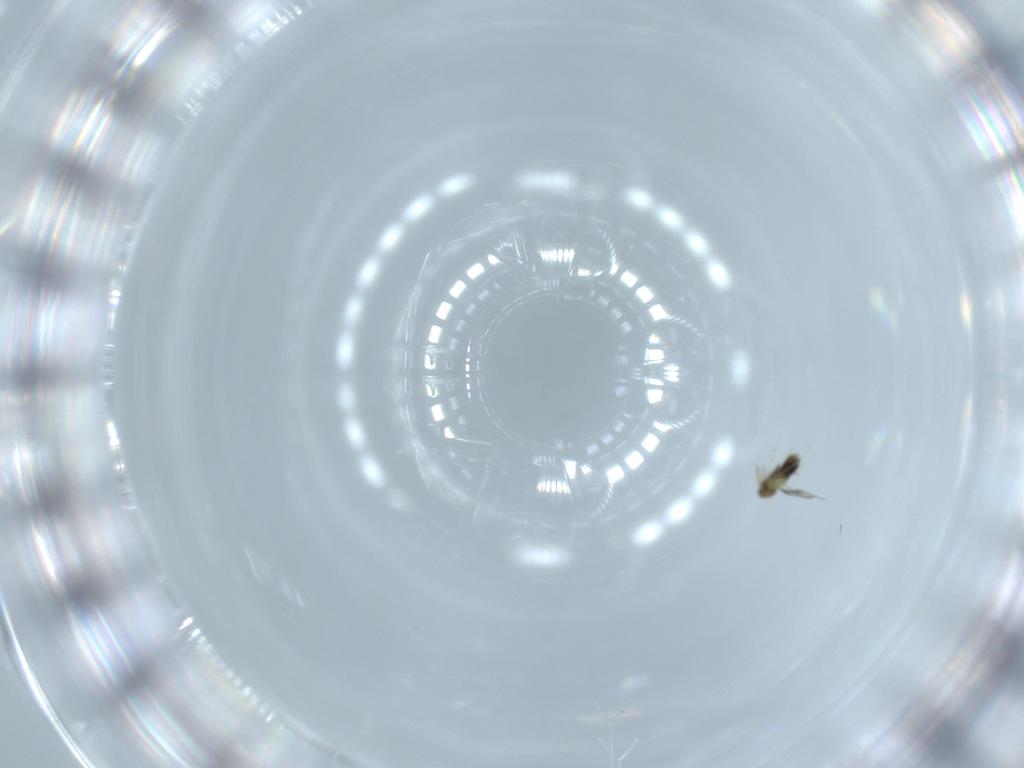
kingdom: Animalia
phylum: Arthropoda
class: Insecta
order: Hymenoptera
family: Aphelinidae
